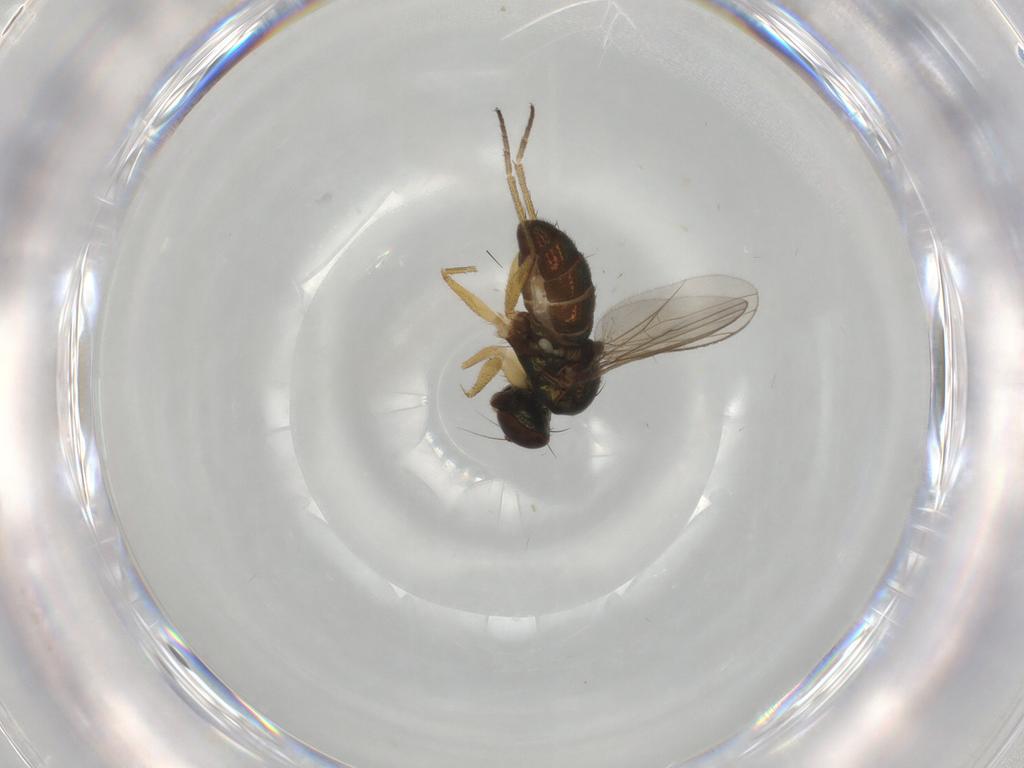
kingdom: Animalia
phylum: Arthropoda
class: Insecta
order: Diptera
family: Dolichopodidae
